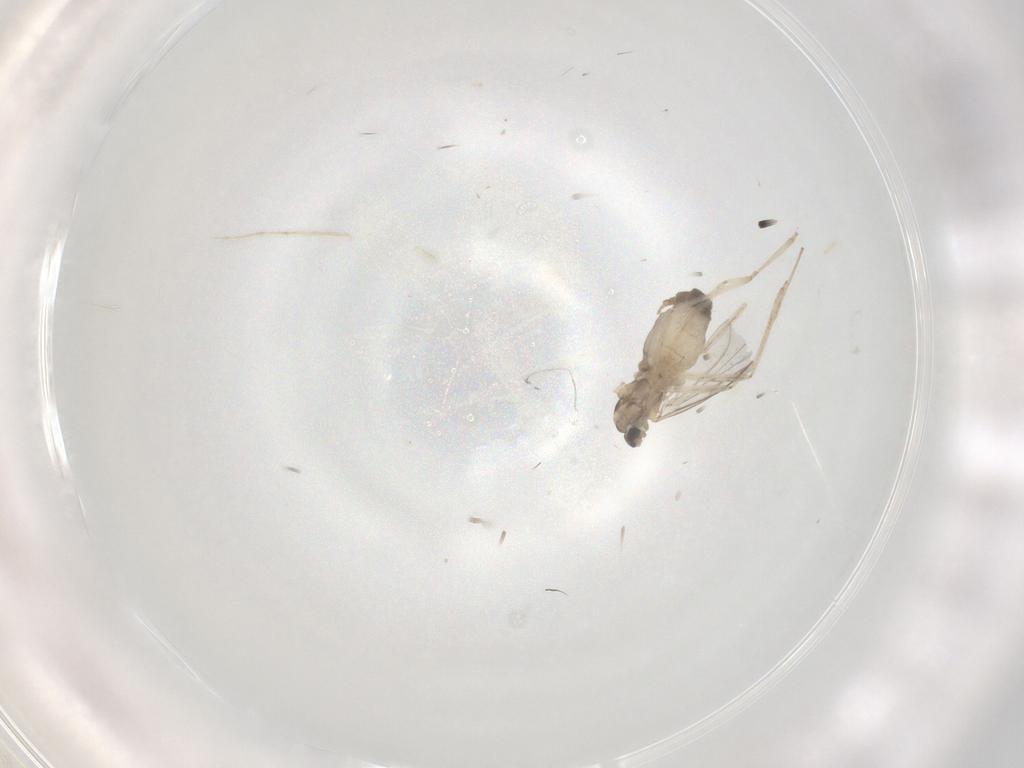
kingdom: Animalia
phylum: Arthropoda
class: Insecta
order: Diptera
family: Cecidomyiidae
